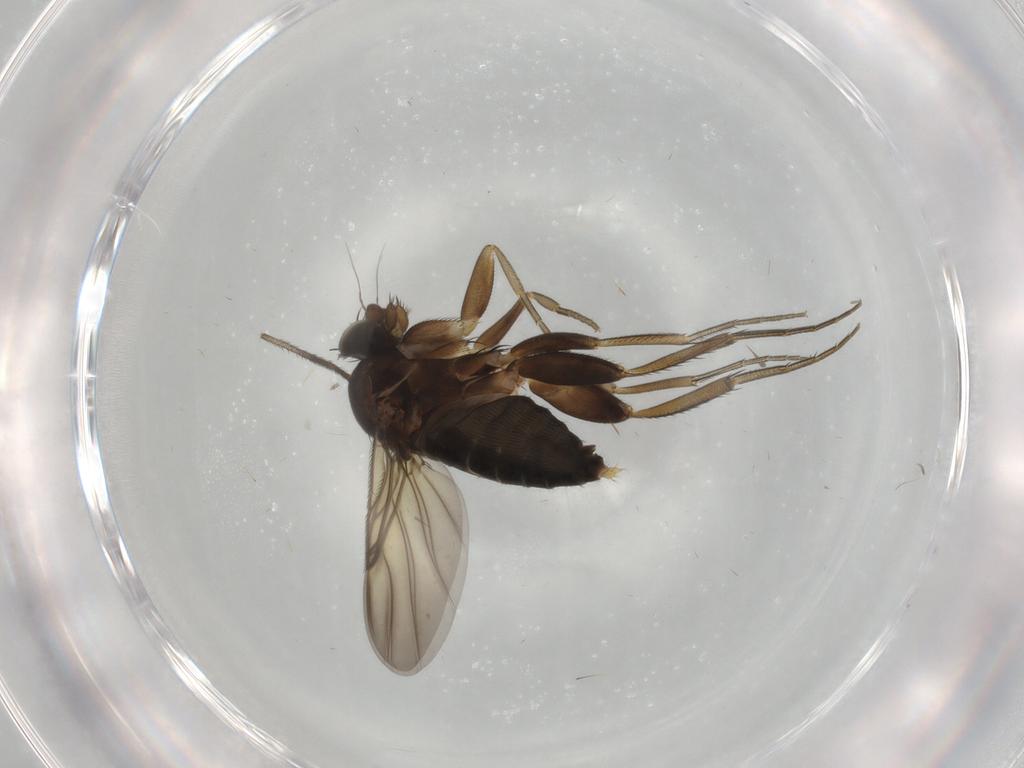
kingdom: Animalia
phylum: Arthropoda
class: Insecta
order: Diptera
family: Phoridae
